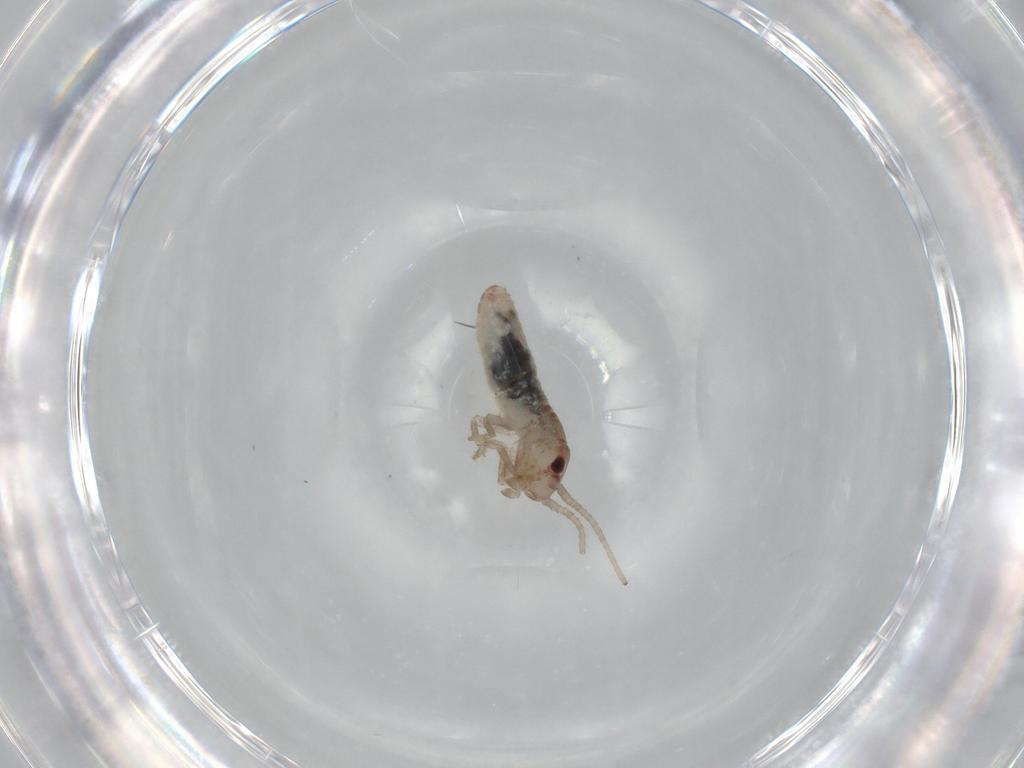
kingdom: Animalia
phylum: Arthropoda
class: Insecta
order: Orthoptera
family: Mogoplistidae
